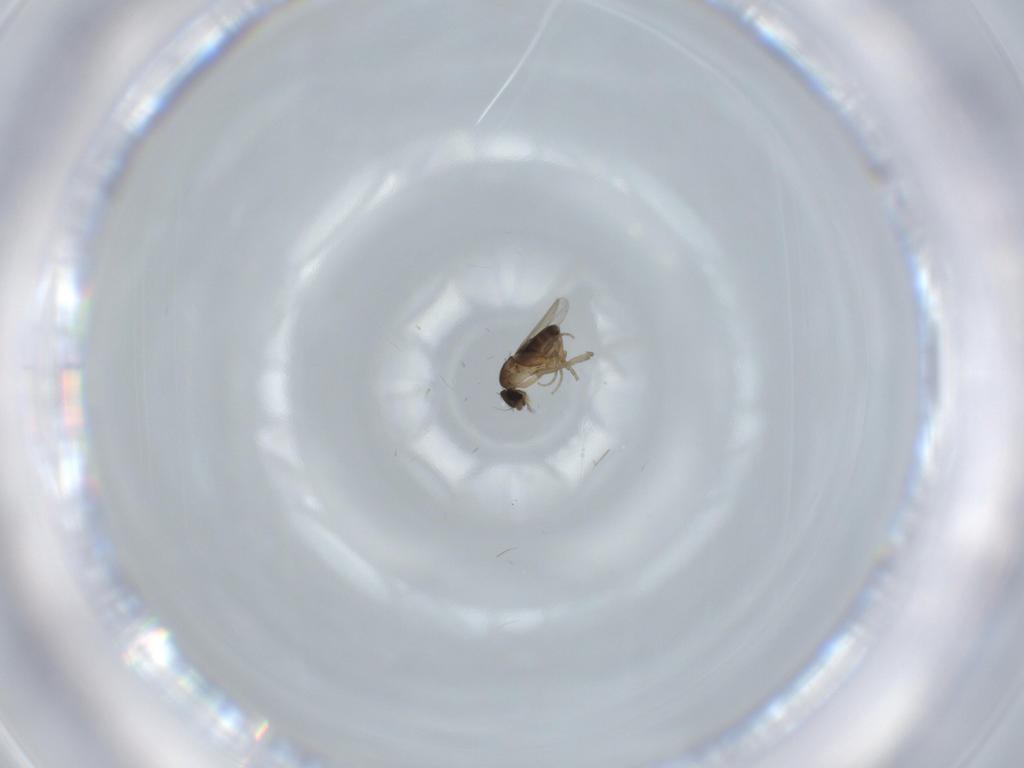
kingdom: Animalia
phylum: Arthropoda
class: Insecta
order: Diptera
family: Phoridae
